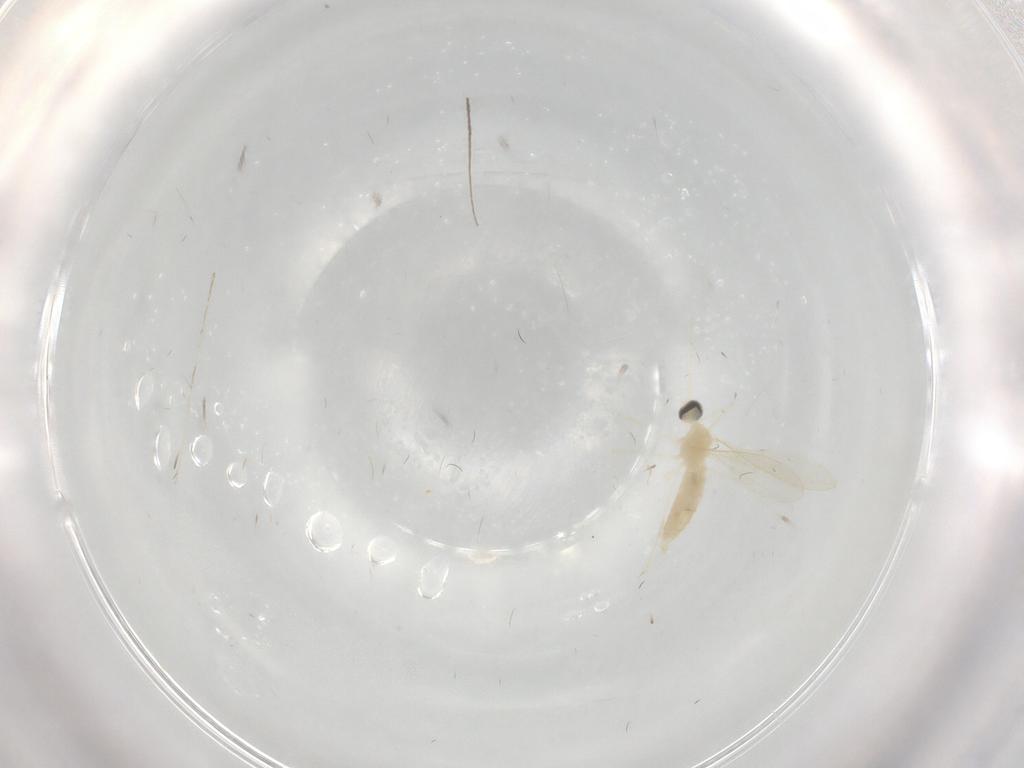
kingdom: Animalia
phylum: Arthropoda
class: Insecta
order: Diptera
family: Cecidomyiidae
